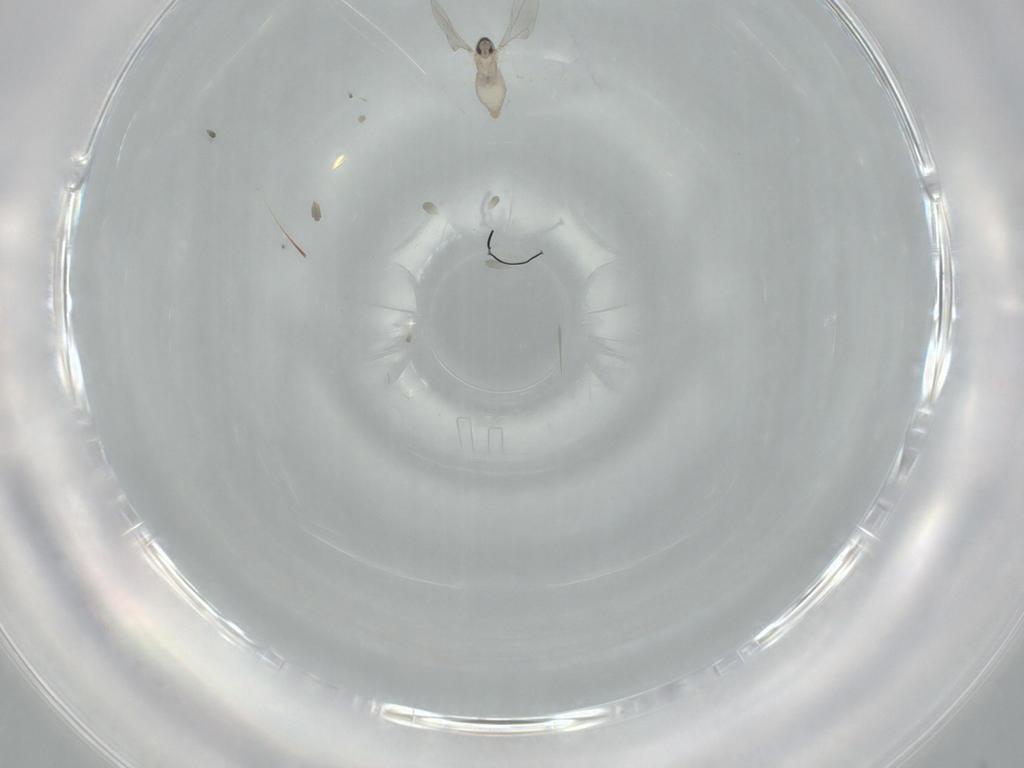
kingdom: Animalia
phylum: Arthropoda
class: Insecta
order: Diptera
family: Cecidomyiidae
